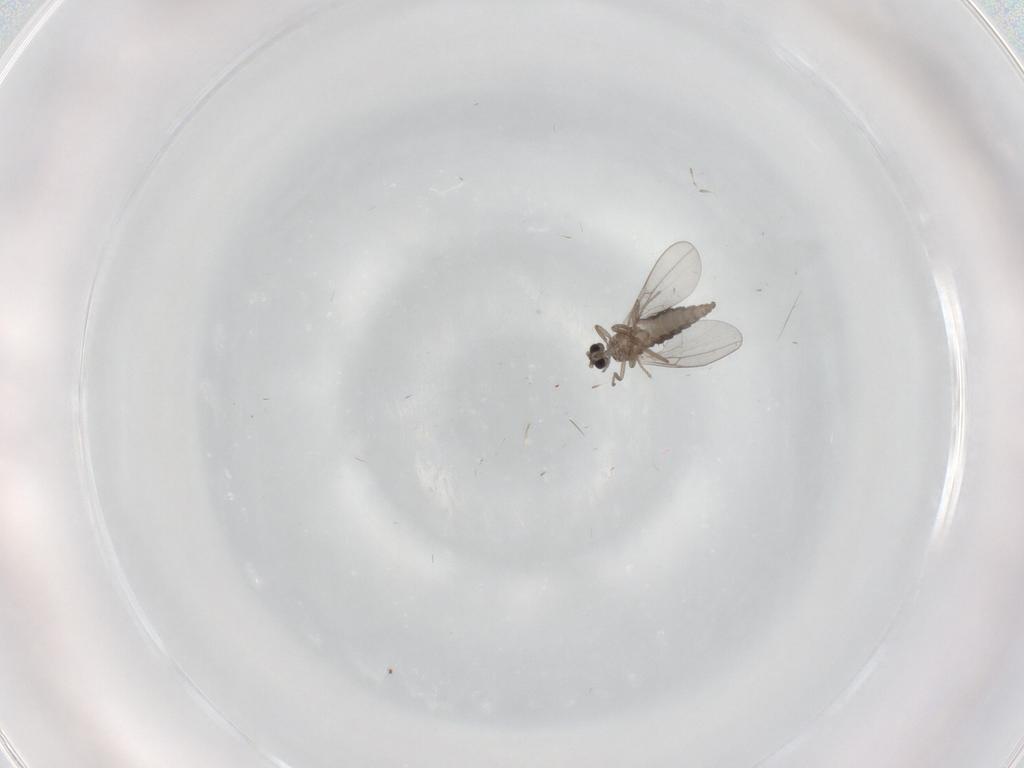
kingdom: Animalia
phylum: Arthropoda
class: Insecta
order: Diptera
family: Cecidomyiidae
